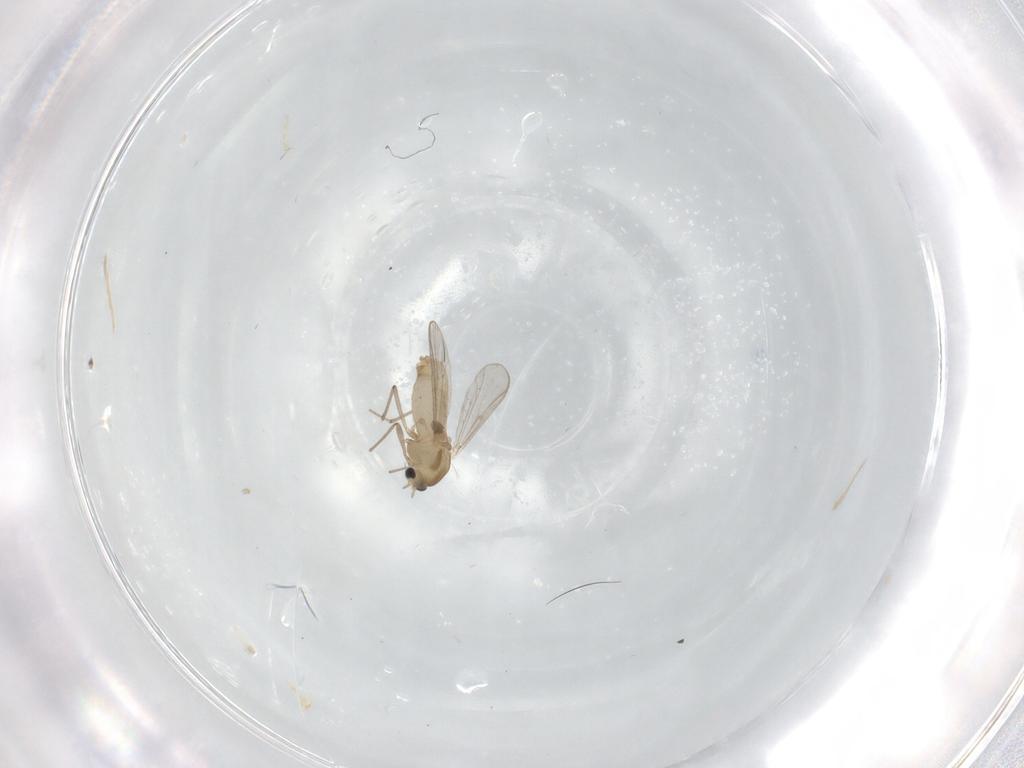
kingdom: Animalia
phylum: Arthropoda
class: Insecta
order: Diptera
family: Chironomidae
